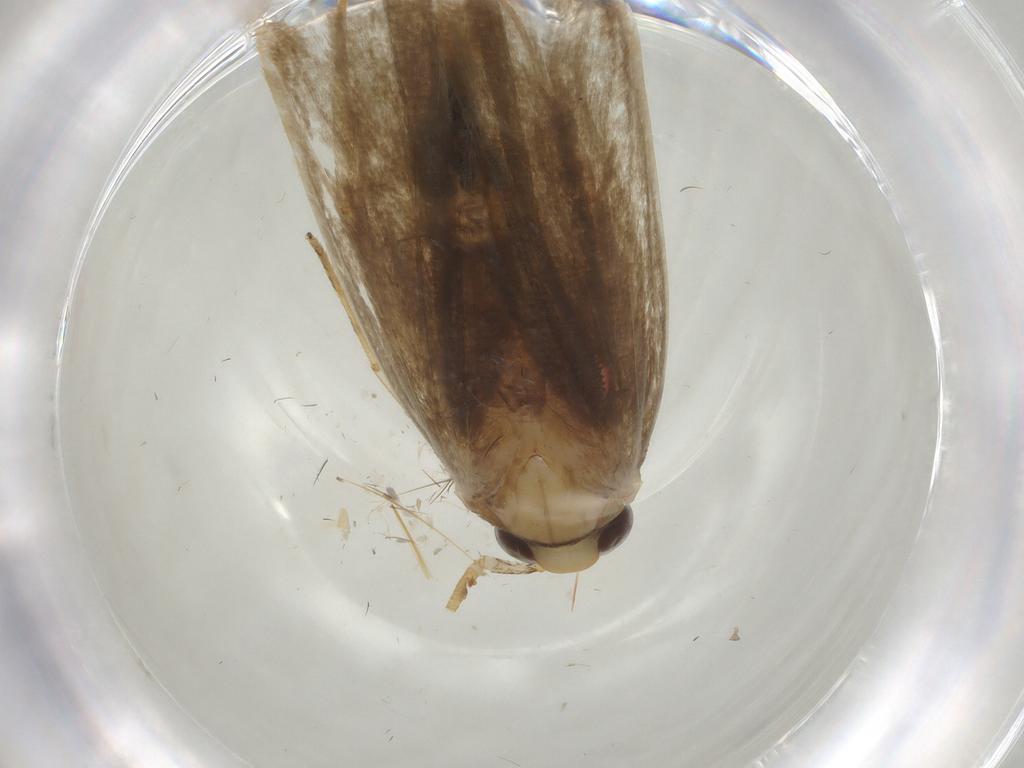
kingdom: Animalia
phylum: Arthropoda
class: Insecta
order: Lepidoptera
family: Autostichidae
